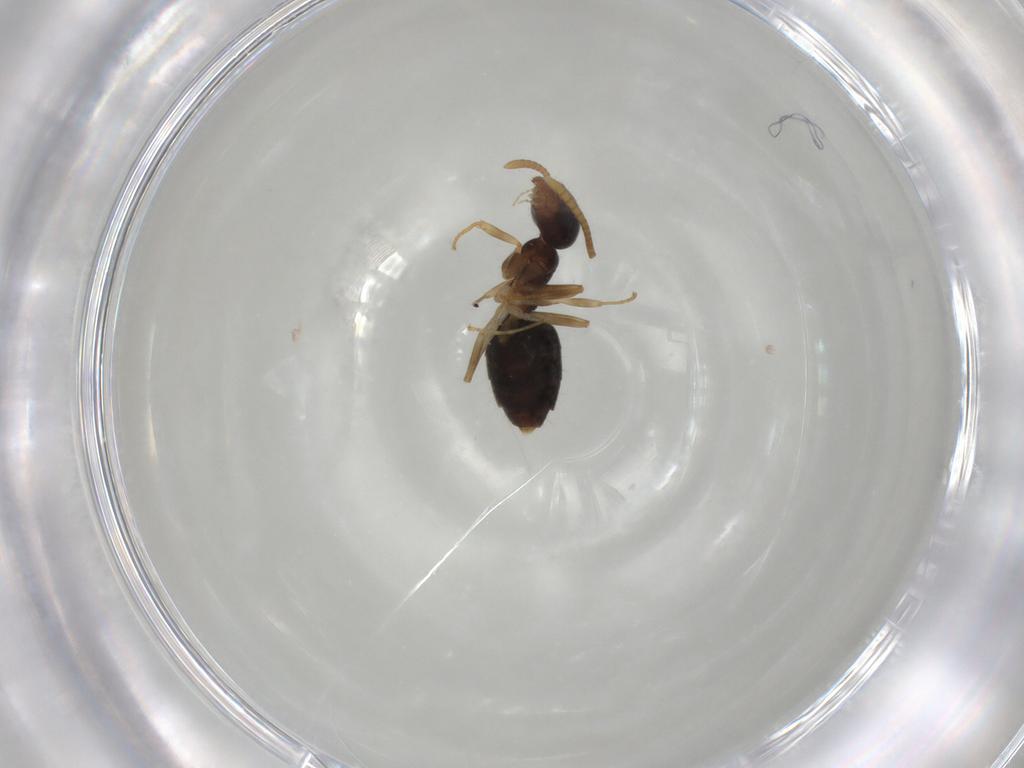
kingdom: Animalia
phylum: Arthropoda
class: Insecta
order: Hymenoptera
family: Formicidae
